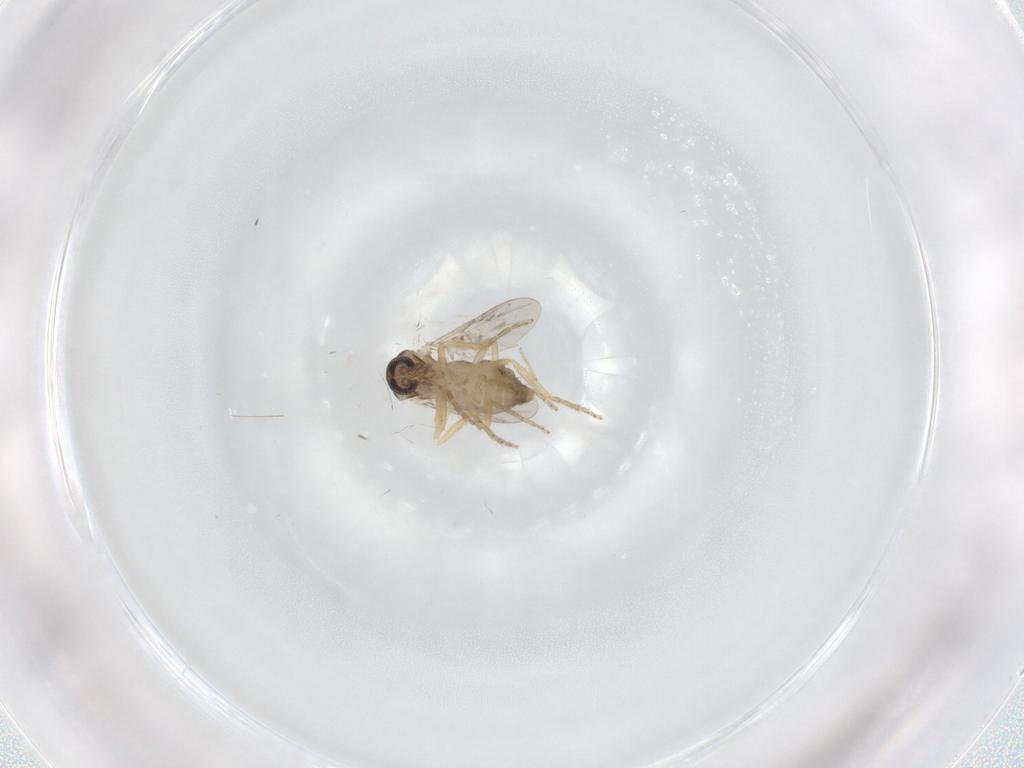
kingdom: Animalia
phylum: Arthropoda
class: Insecta
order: Diptera
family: Ceratopogonidae
